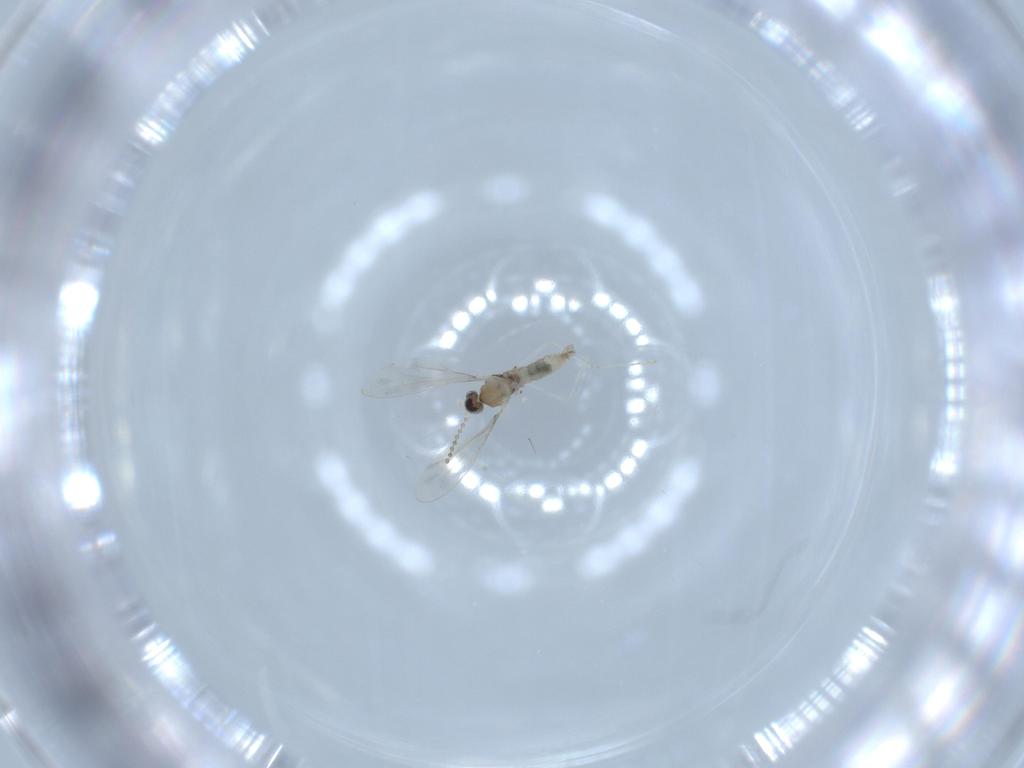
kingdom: Animalia
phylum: Arthropoda
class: Insecta
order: Diptera
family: Cecidomyiidae
